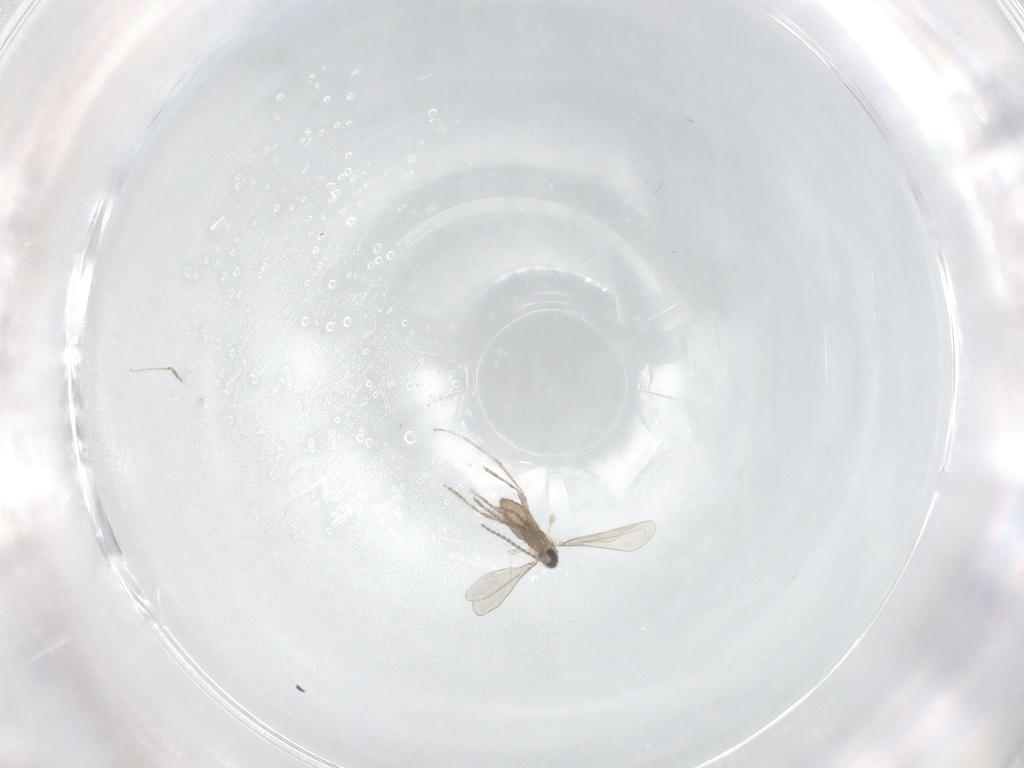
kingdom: Animalia
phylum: Arthropoda
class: Insecta
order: Diptera
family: Cecidomyiidae
